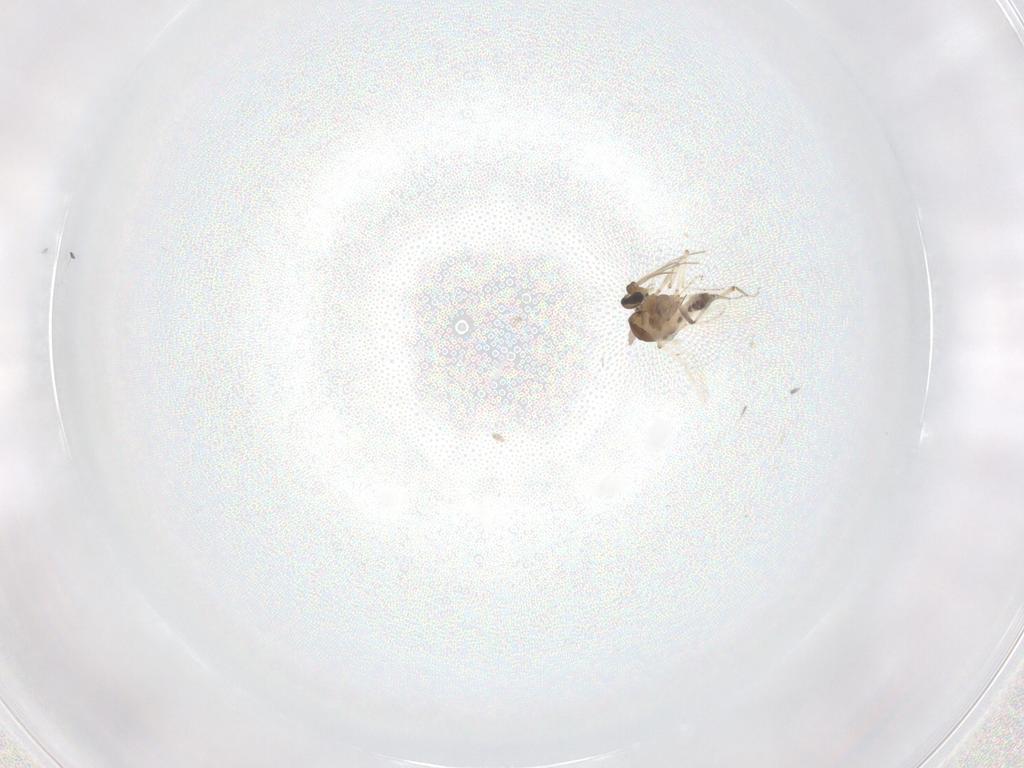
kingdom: Animalia
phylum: Arthropoda
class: Insecta
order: Diptera
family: Ceratopogonidae
